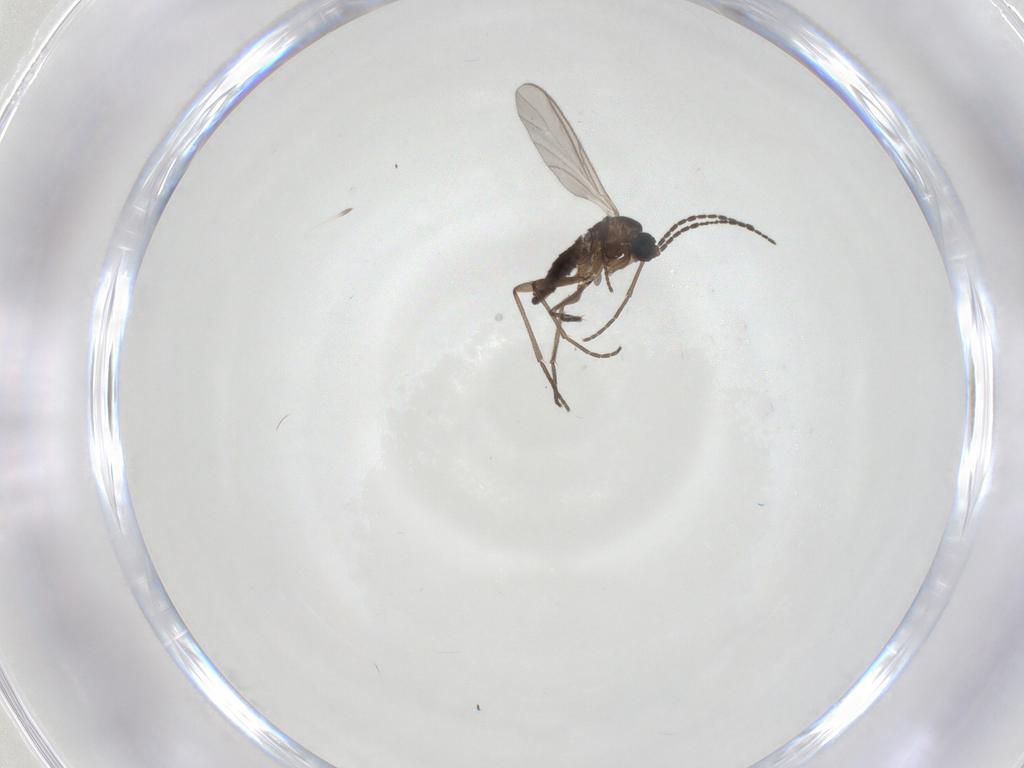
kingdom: Animalia
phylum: Arthropoda
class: Insecta
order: Diptera
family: Sciaridae
